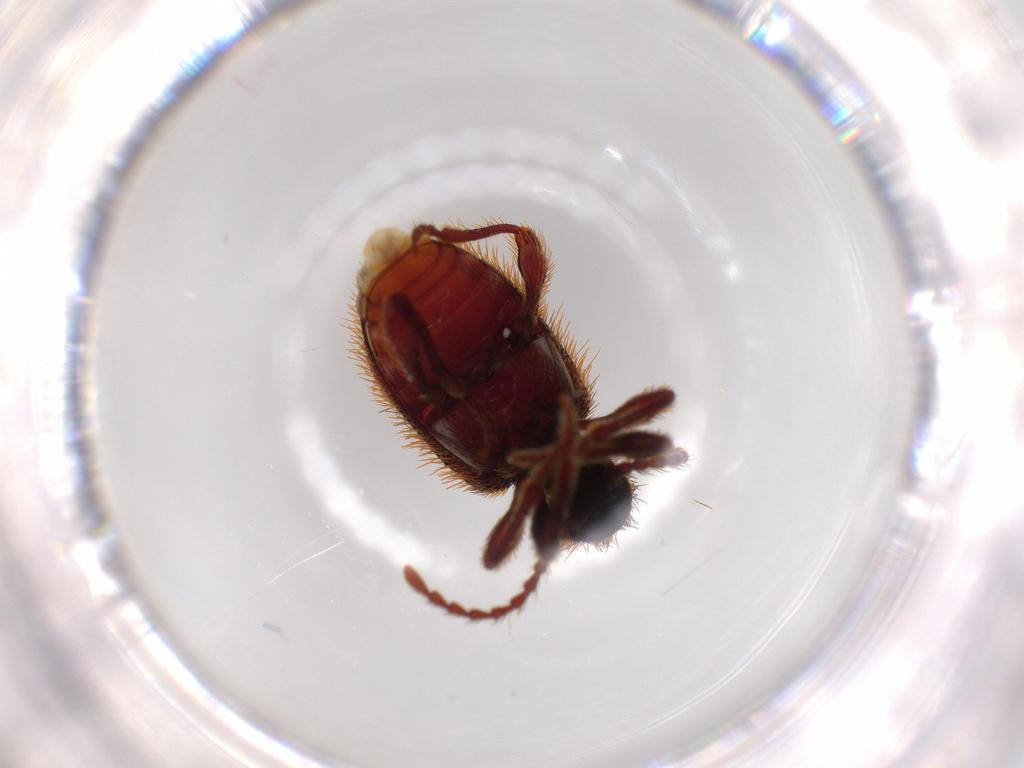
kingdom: Animalia
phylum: Arthropoda
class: Insecta
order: Coleoptera
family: Ptinidae
